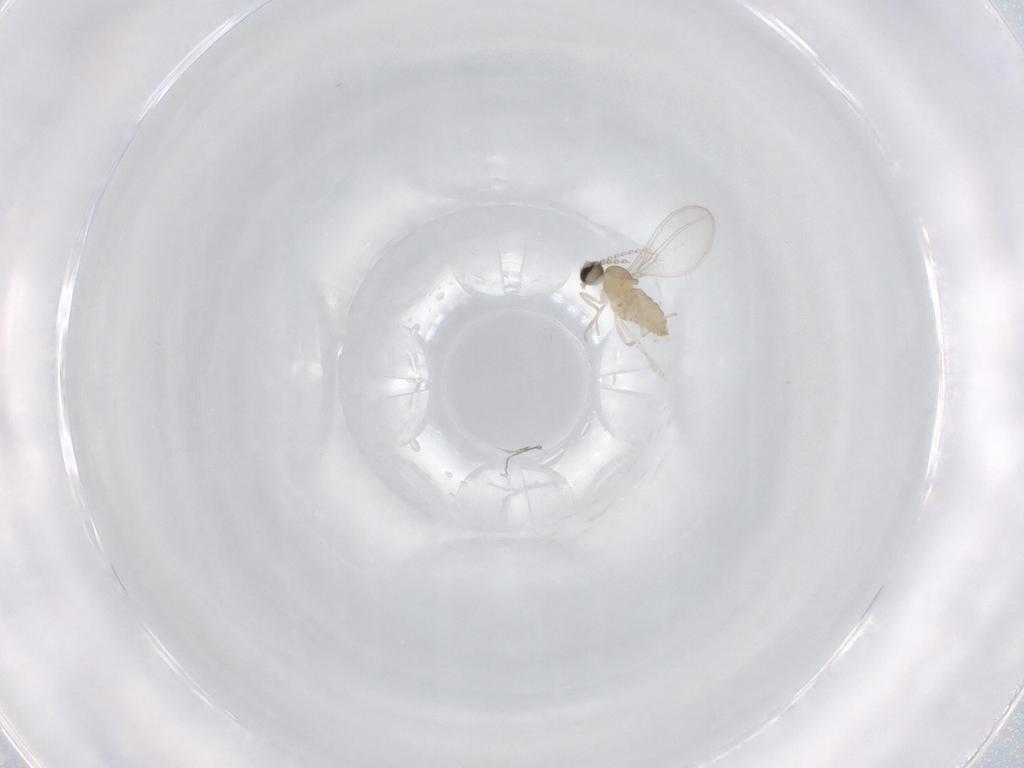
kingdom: Animalia
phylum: Arthropoda
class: Insecta
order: Diptera
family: Cecidomyiidae
